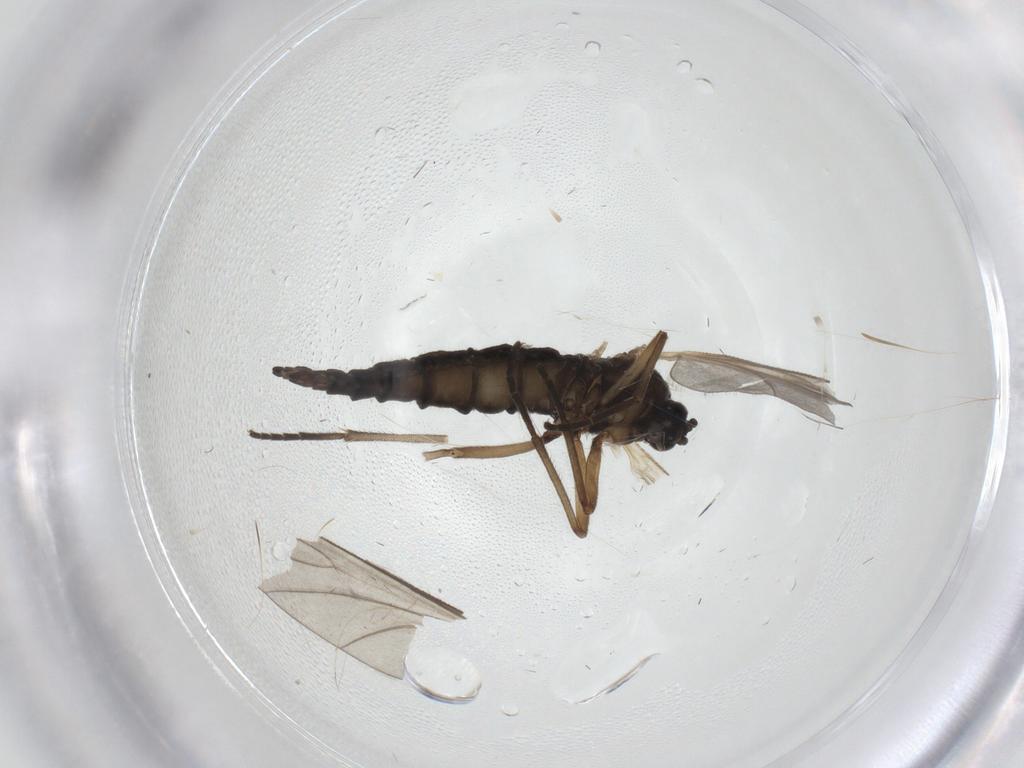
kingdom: Animalia
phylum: Arthropoda
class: Insecta
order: Diptera
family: Sciaridae
